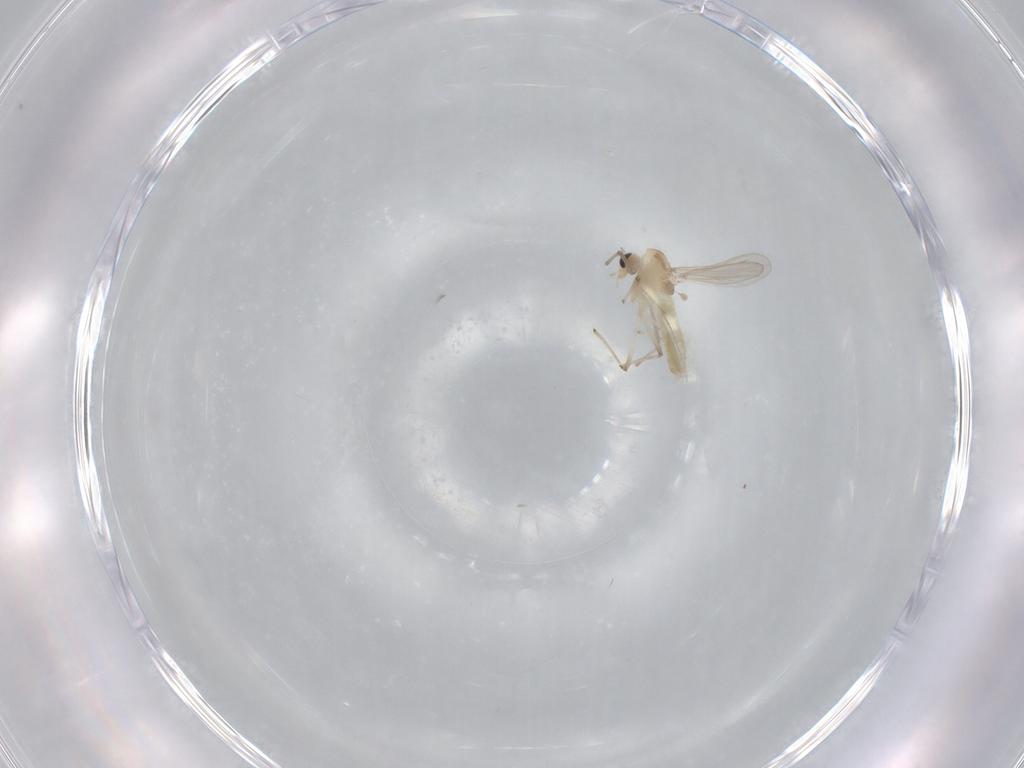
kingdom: Animalia
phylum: Arthropoda
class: Insecta
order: Diptera
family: Chironomidae
